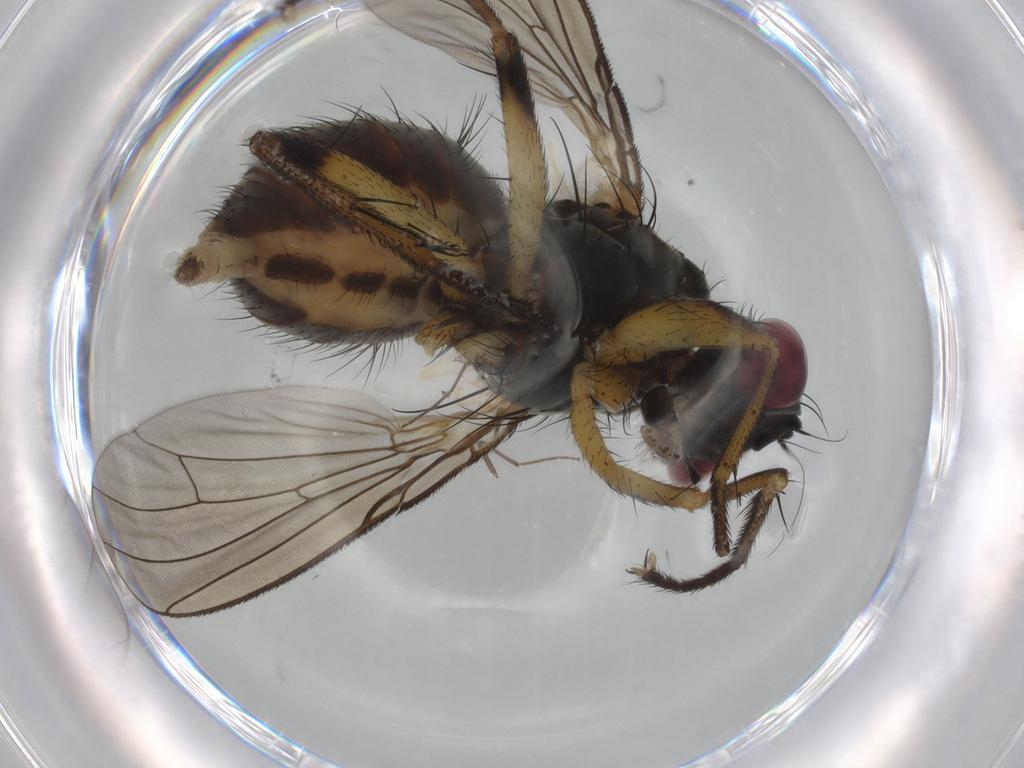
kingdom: Animalia
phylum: Arthropoda
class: Insecta
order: Diptera
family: Muscidae
